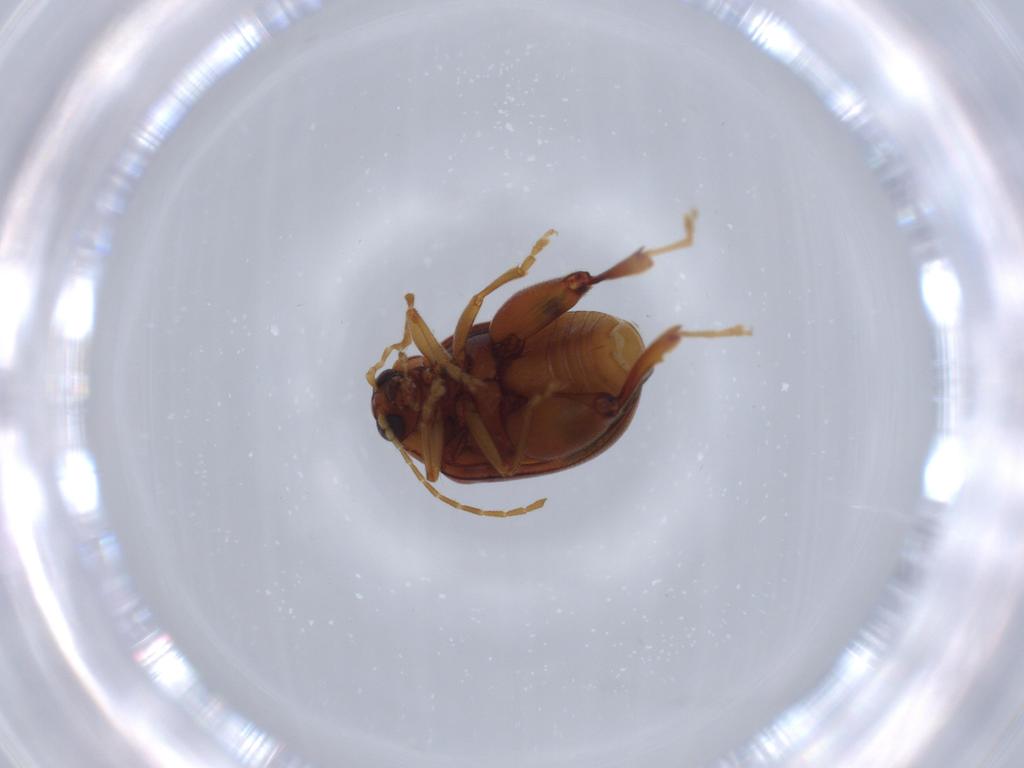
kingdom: Animalia
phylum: Arthropoda
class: Insecta
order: Coleoptera
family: Chrysomelidae
